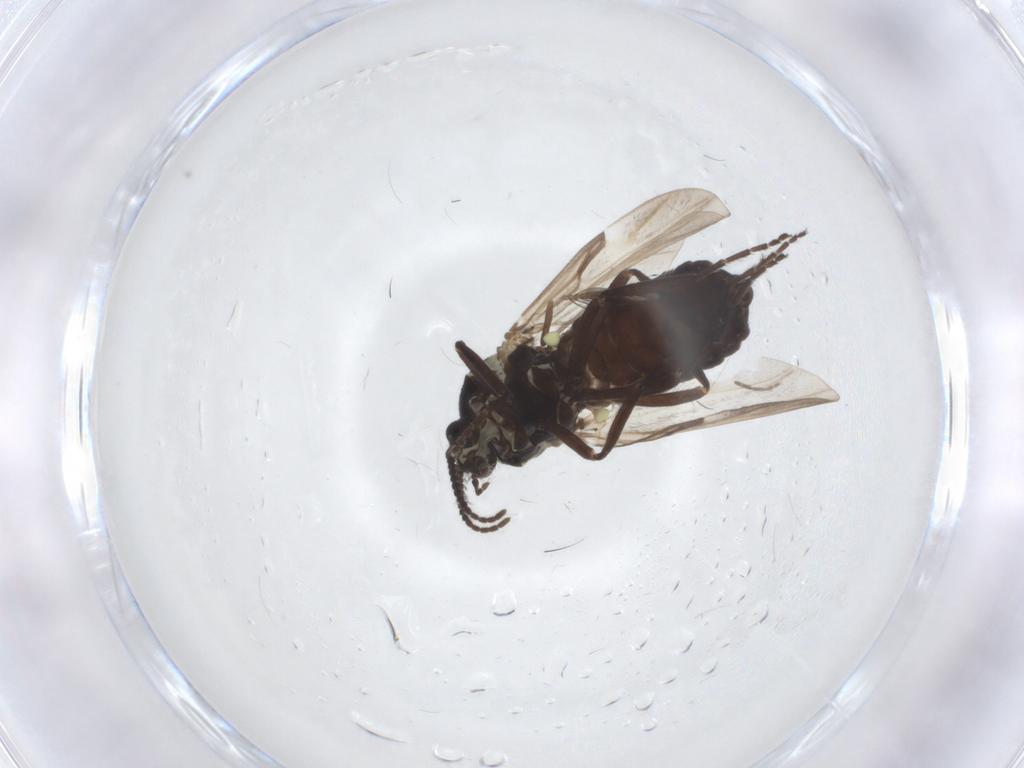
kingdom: Animalia
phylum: Arthropoda
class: Insecta
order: Diptera
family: Ceratopogonidae
